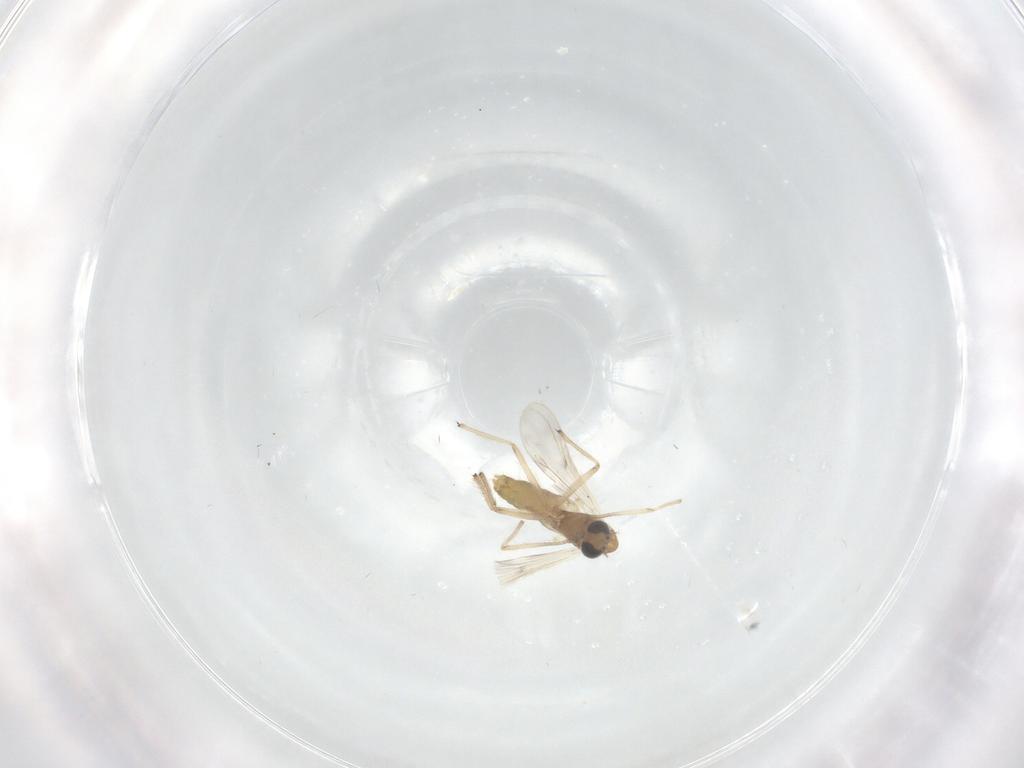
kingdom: Animalia
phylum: Arthropoda
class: Insecta
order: Diptera
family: Chironomidae
